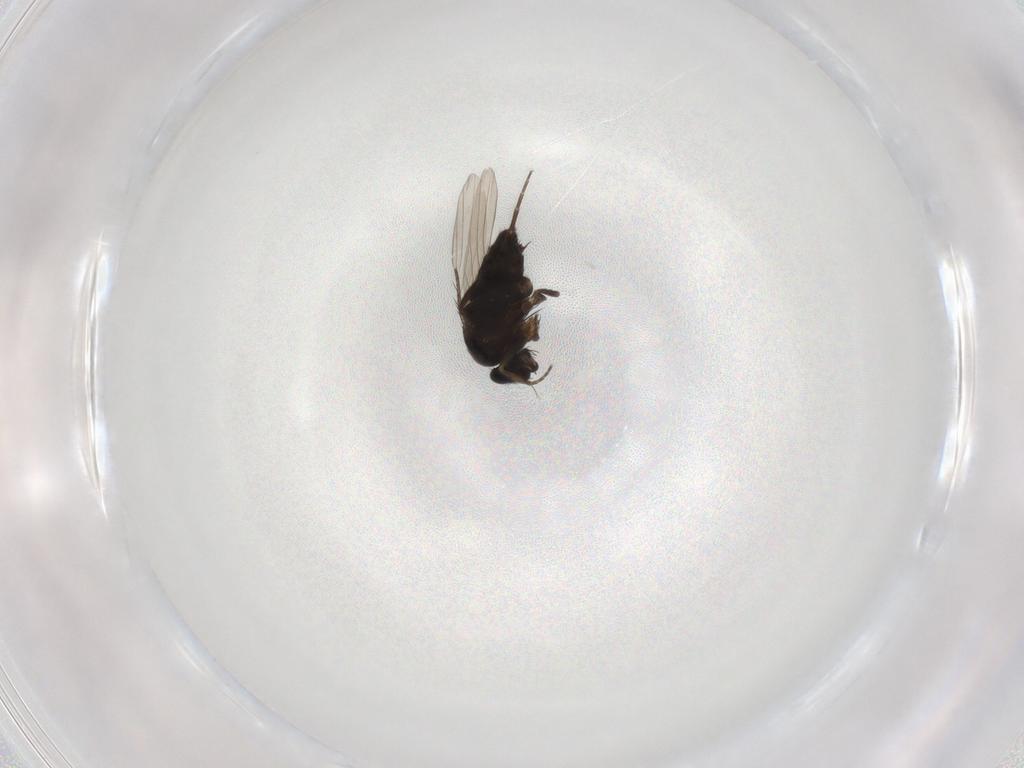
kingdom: Animalia
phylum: Arthropoda
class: Insecta
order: Diptera
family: Phoridae
